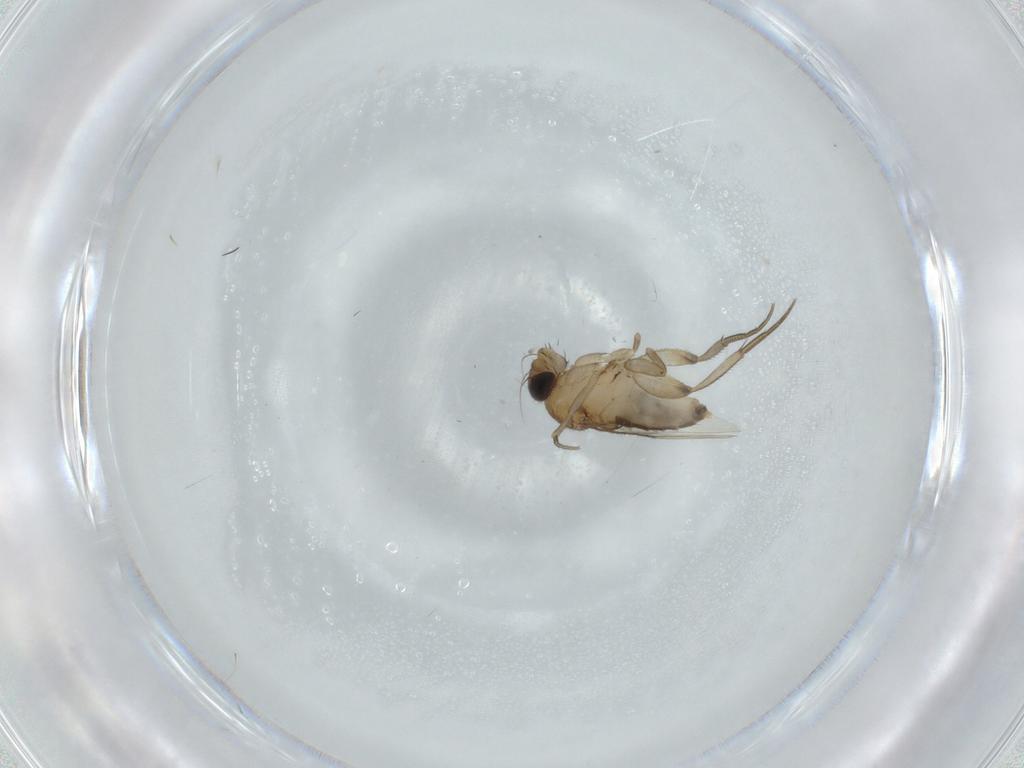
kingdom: Animalia
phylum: Arthropoda
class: Insecta
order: Diptera
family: Phoridae
